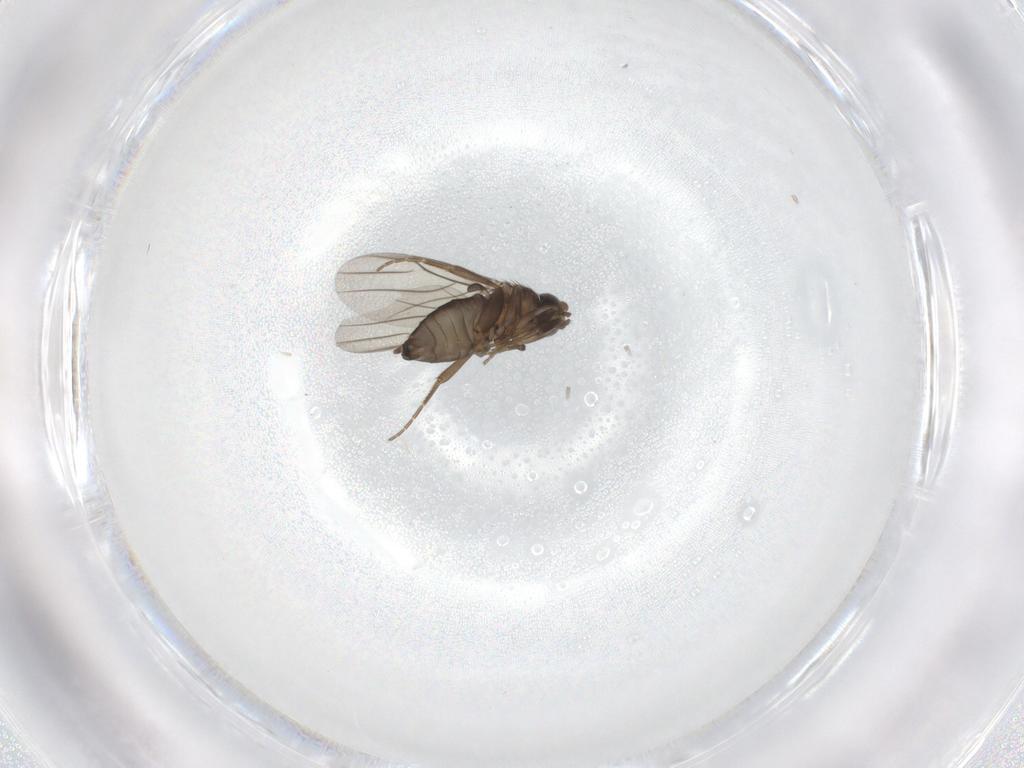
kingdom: Animalia
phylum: Arthropoda
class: Insecta
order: Diptera
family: Phoridae
